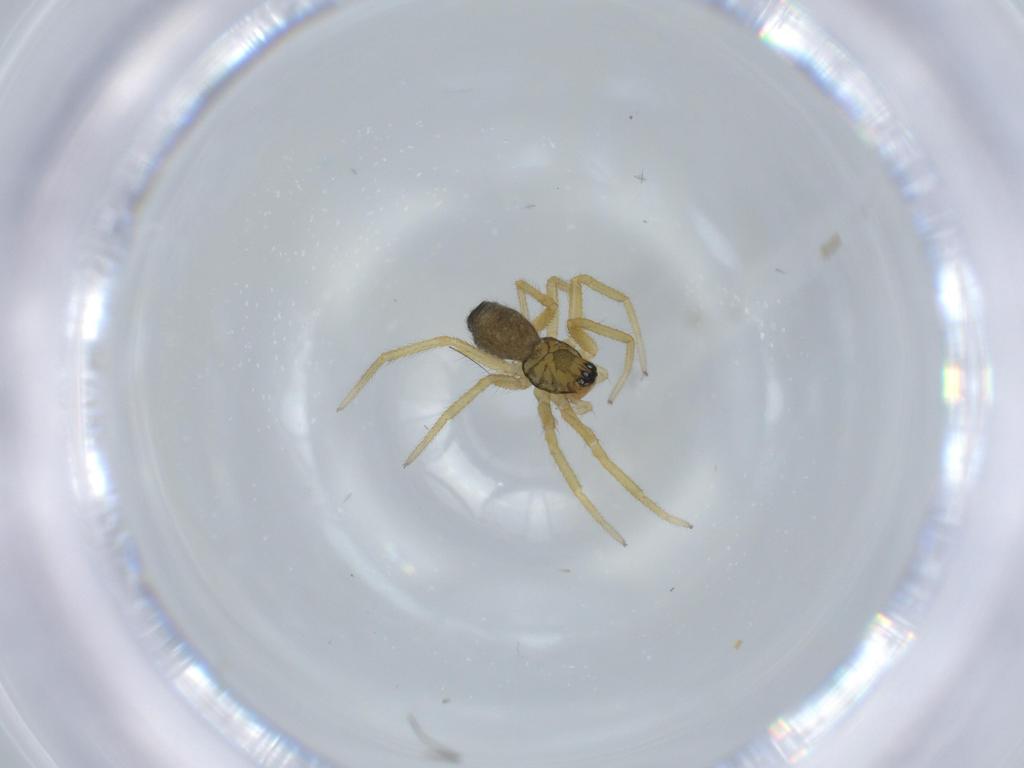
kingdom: Animalia
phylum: Arthropoda
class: Arachnida
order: Araneae
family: Linyphiidae
